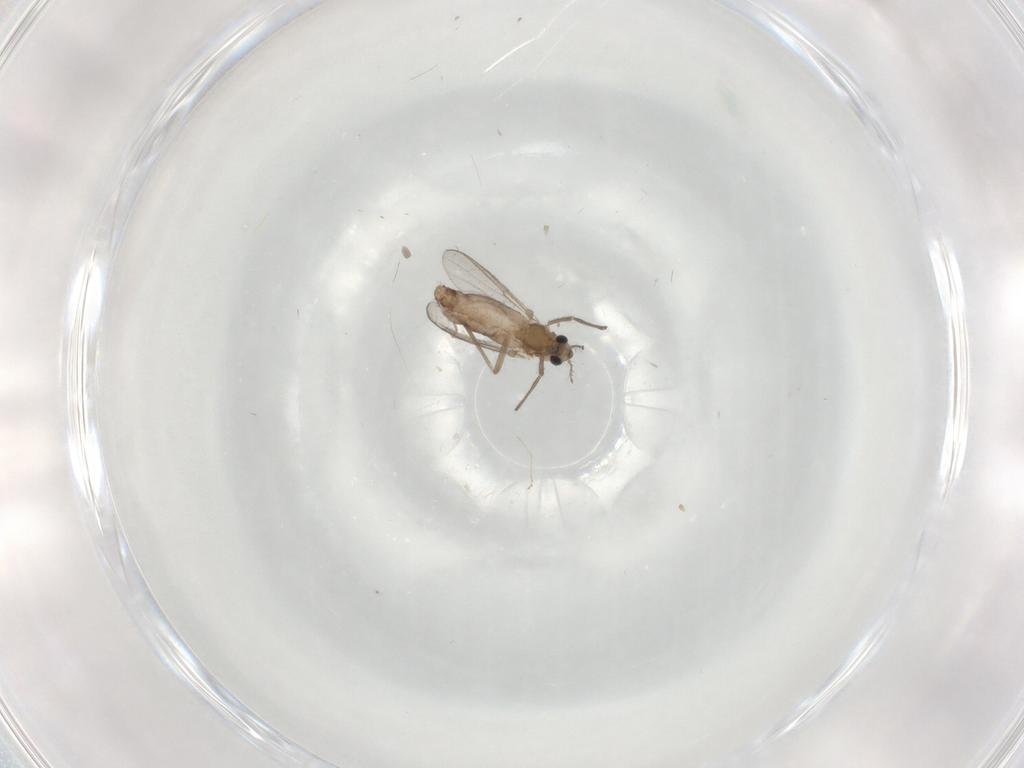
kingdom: Animalia
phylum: Arthropoda
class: Insecta
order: Diptera
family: Chironomidae
